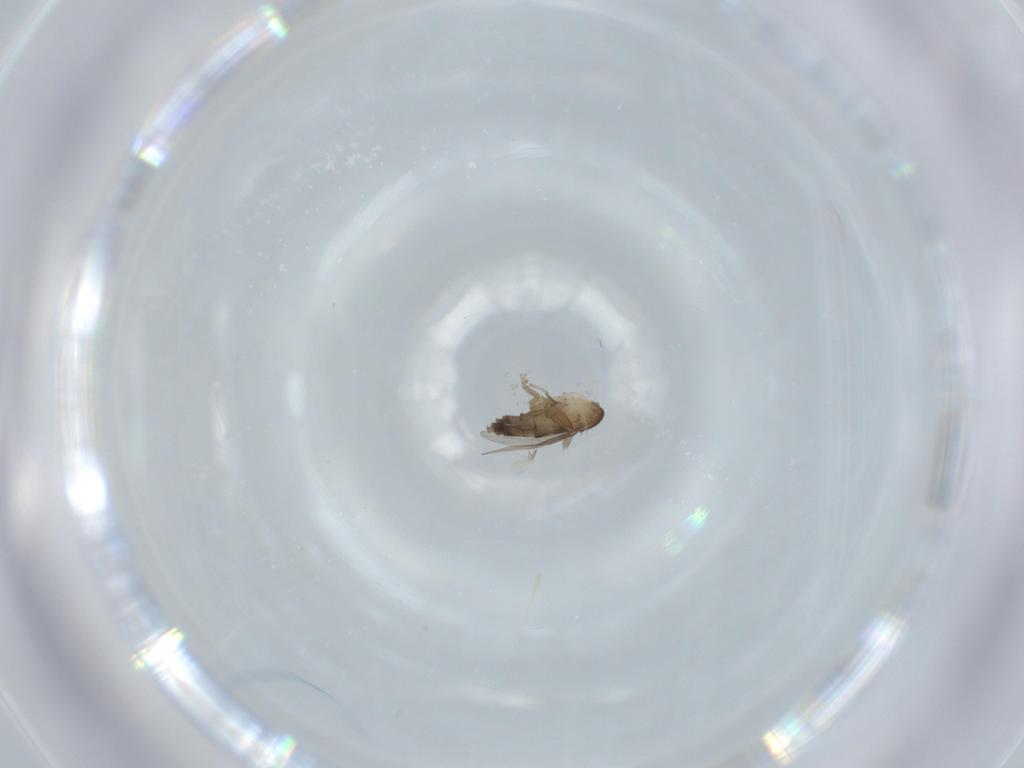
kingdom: Animalia
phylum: Arthropoda
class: Insecta
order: Diptera
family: Phoridae
